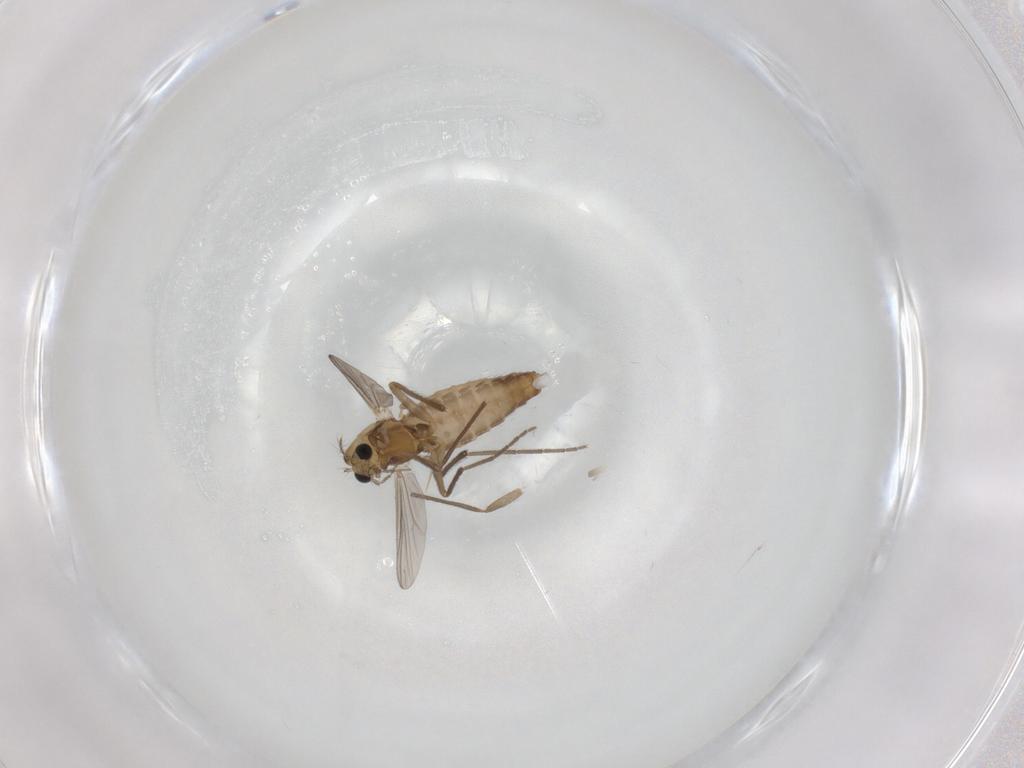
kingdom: Animalia
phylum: Arthropoda
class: Insecta
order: Diptera
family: Chironomidae
